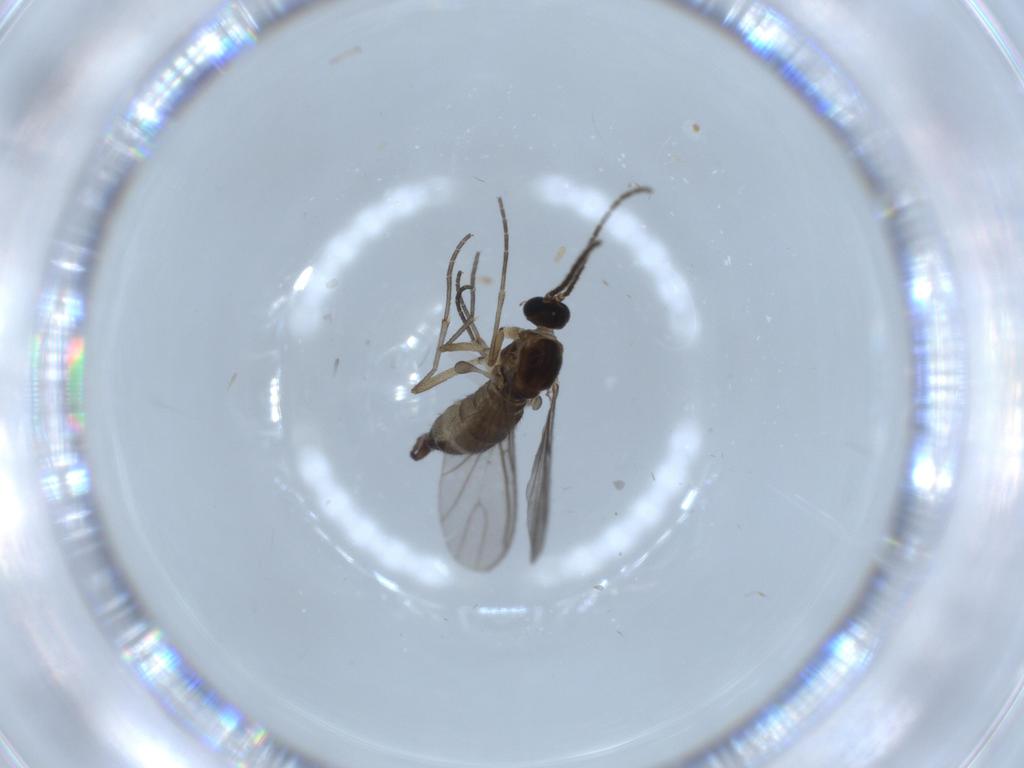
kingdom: Animalia
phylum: Arthropoda
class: Insecta
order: Diptera
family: Sciaridae
